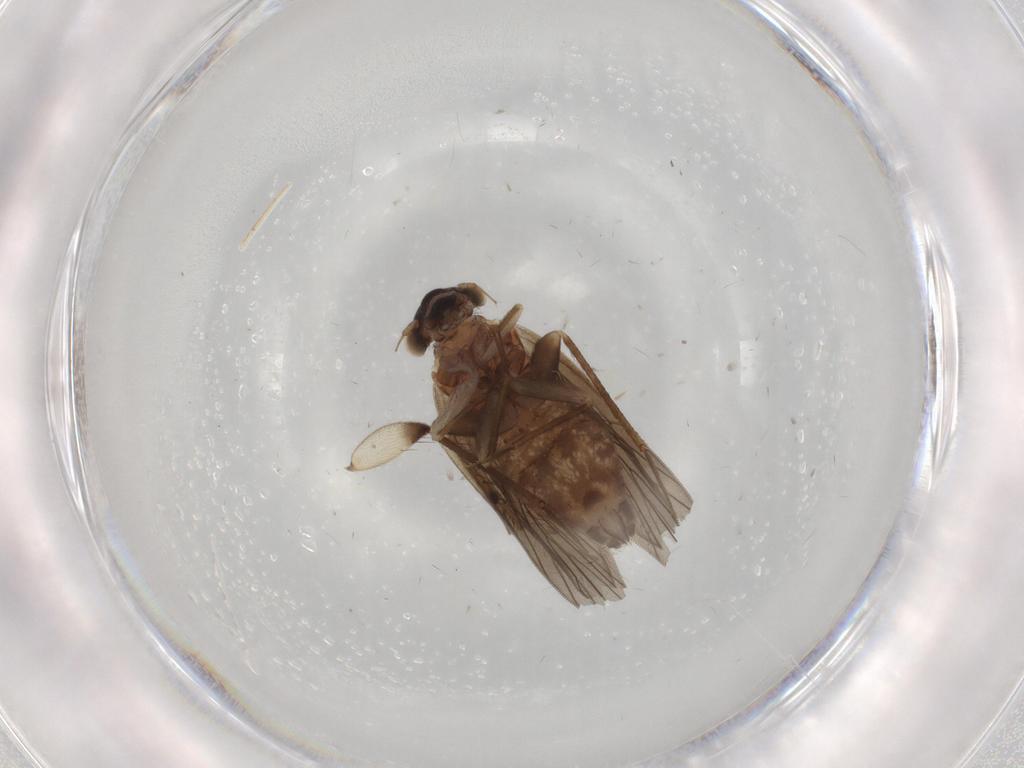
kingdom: Animalia
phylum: Arthropoda
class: Insecta
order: Psocodea
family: Lepidopsocidae
